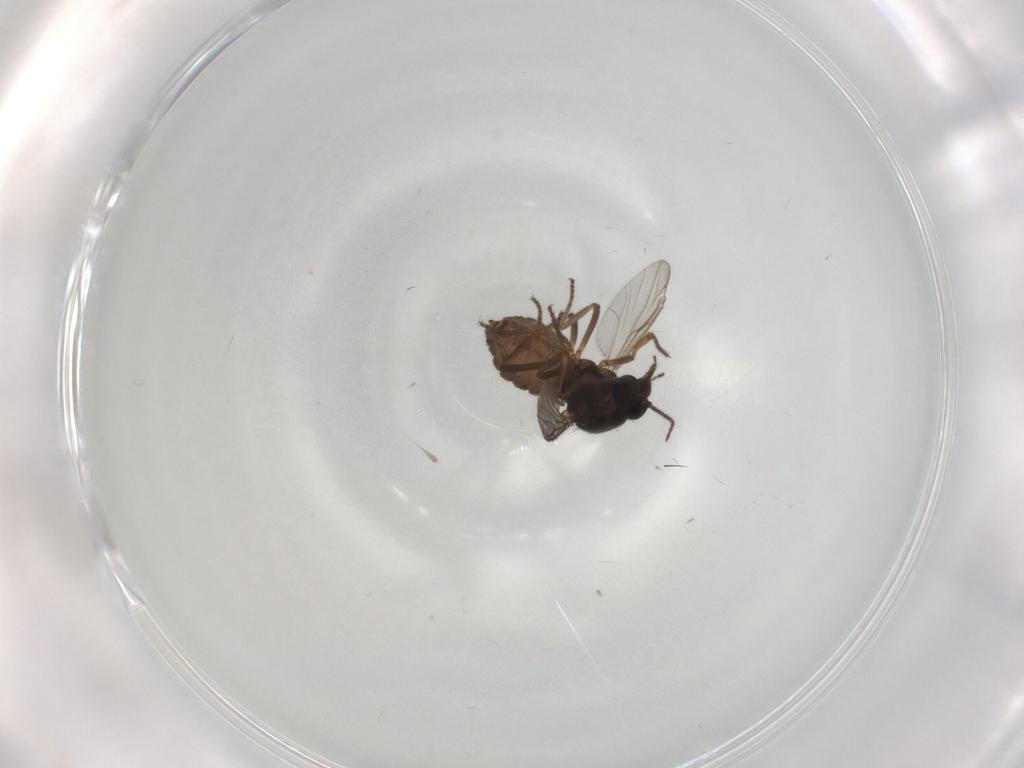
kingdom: Animalia
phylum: Arthropoda
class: Insecta
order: Diptera
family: Ceratopogonidae
